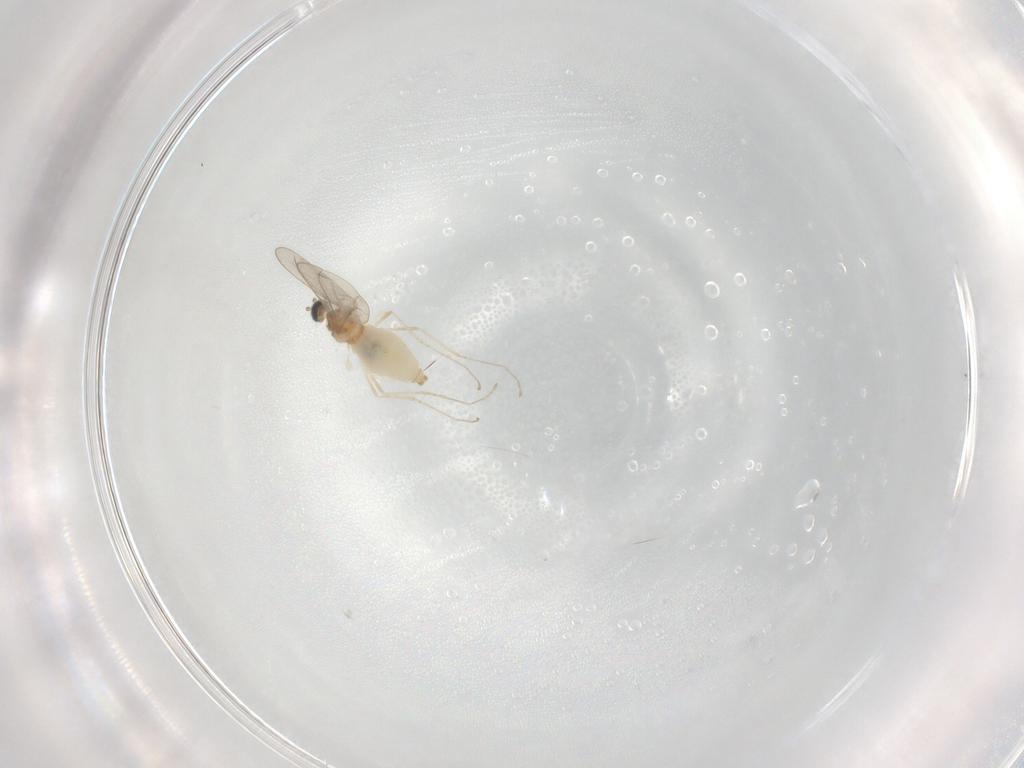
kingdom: Animalia
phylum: Arthropoda
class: Insecta
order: Diptera
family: Cecidomyiidae
